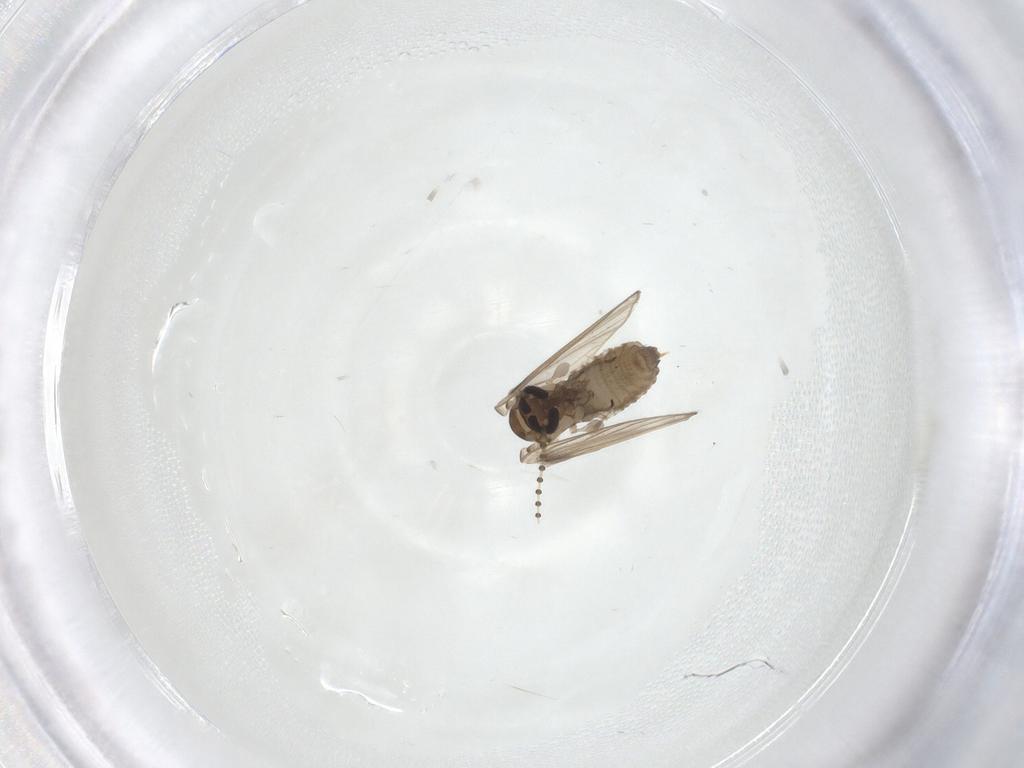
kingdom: Animalia
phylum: Arthropoda
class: Insecta
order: Diptera
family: Psychodidae
